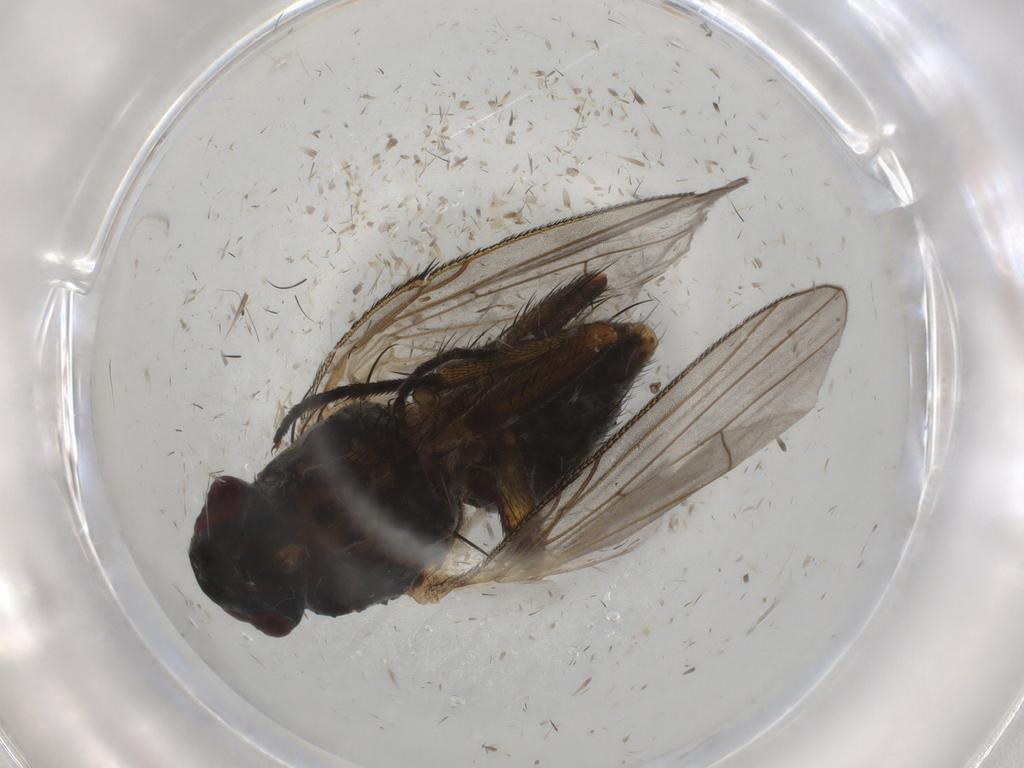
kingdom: Animalia
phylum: Arthropoda
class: Insecta
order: Diptera
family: Muscidae
